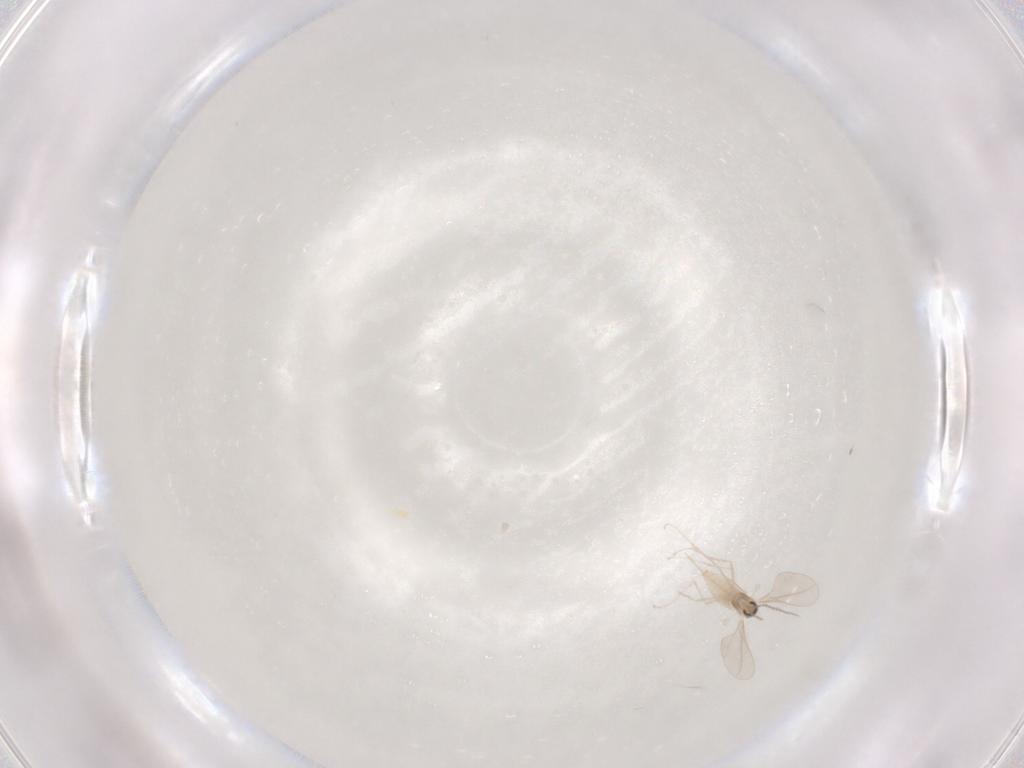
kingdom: Animalia
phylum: Arthropoda
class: Insecta
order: Diptera
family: Cecidomyiidae
